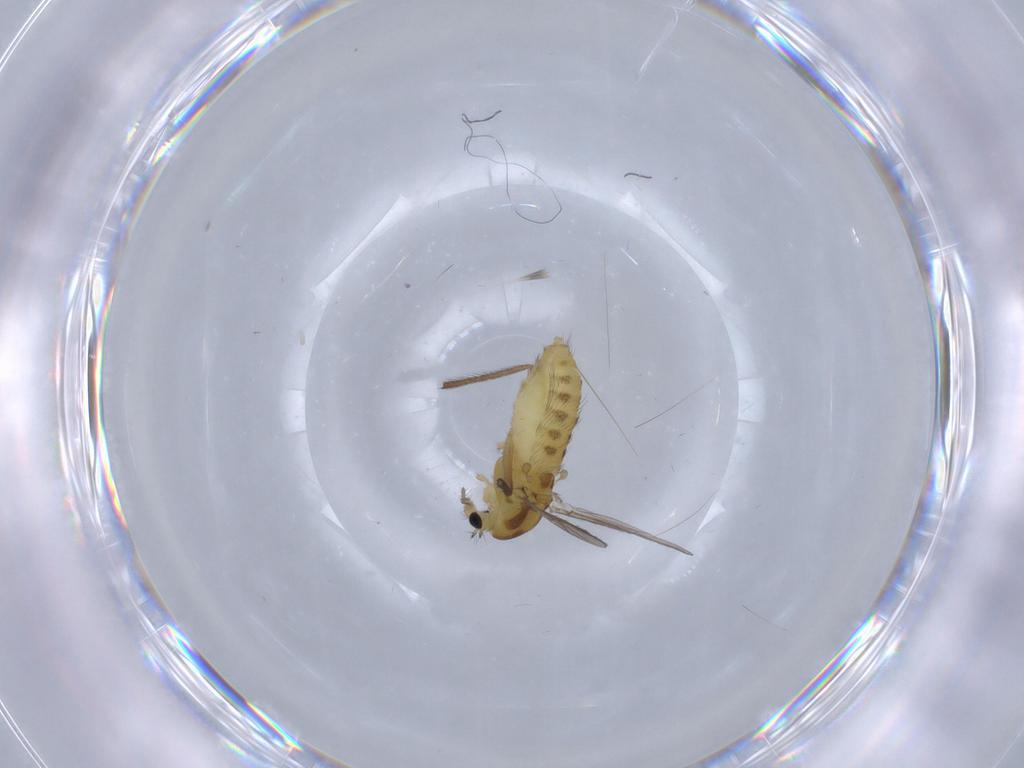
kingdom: Animalia
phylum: Arthropoda
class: Insecta
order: Diptera
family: Chironomidae
